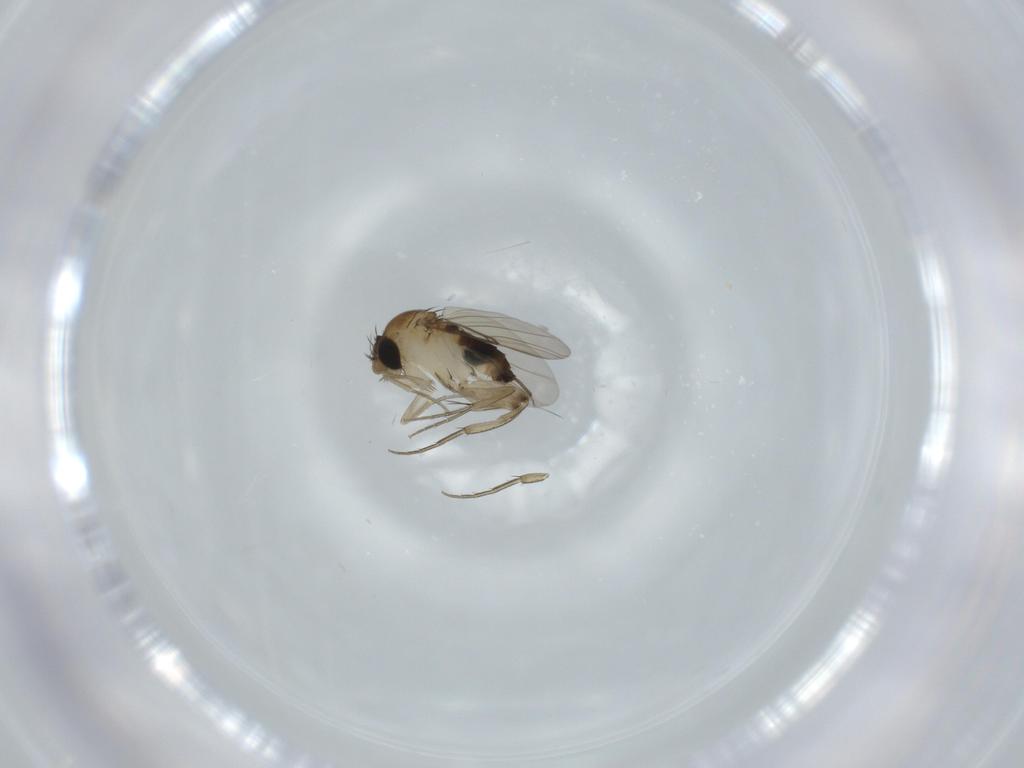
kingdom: Animalia
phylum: Arthropoda
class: Insecta
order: Diptera
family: Phoridae
